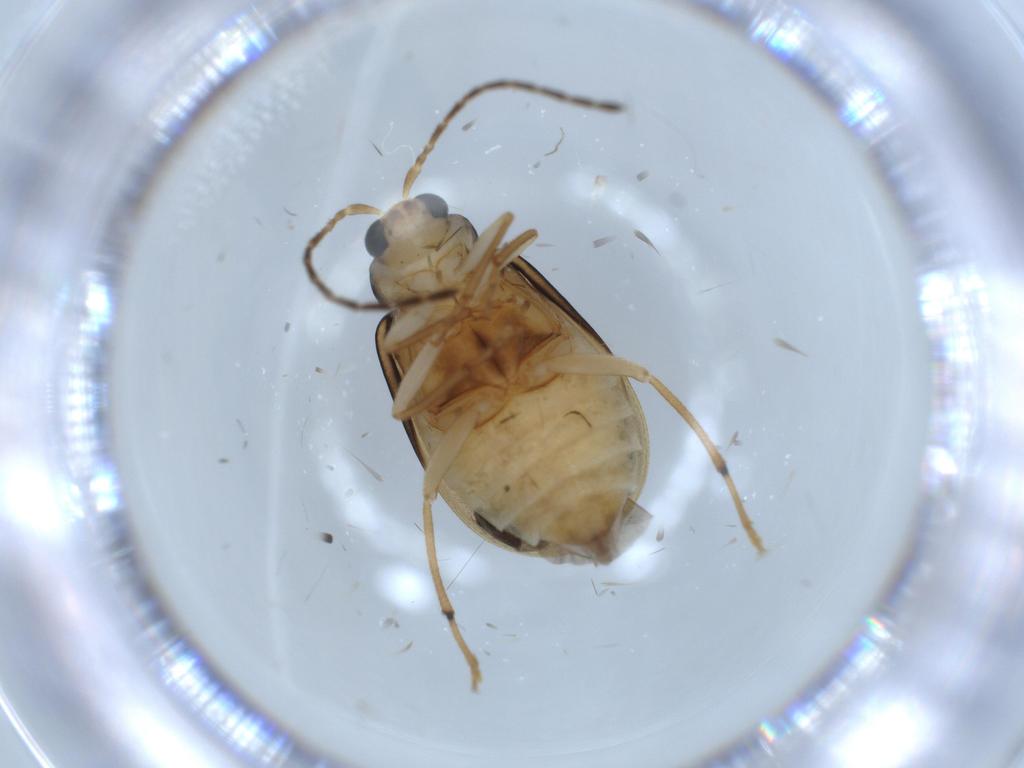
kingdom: Animalia
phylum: Arthropoda
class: Insecta
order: Coleoptera
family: Chrysomelidae
